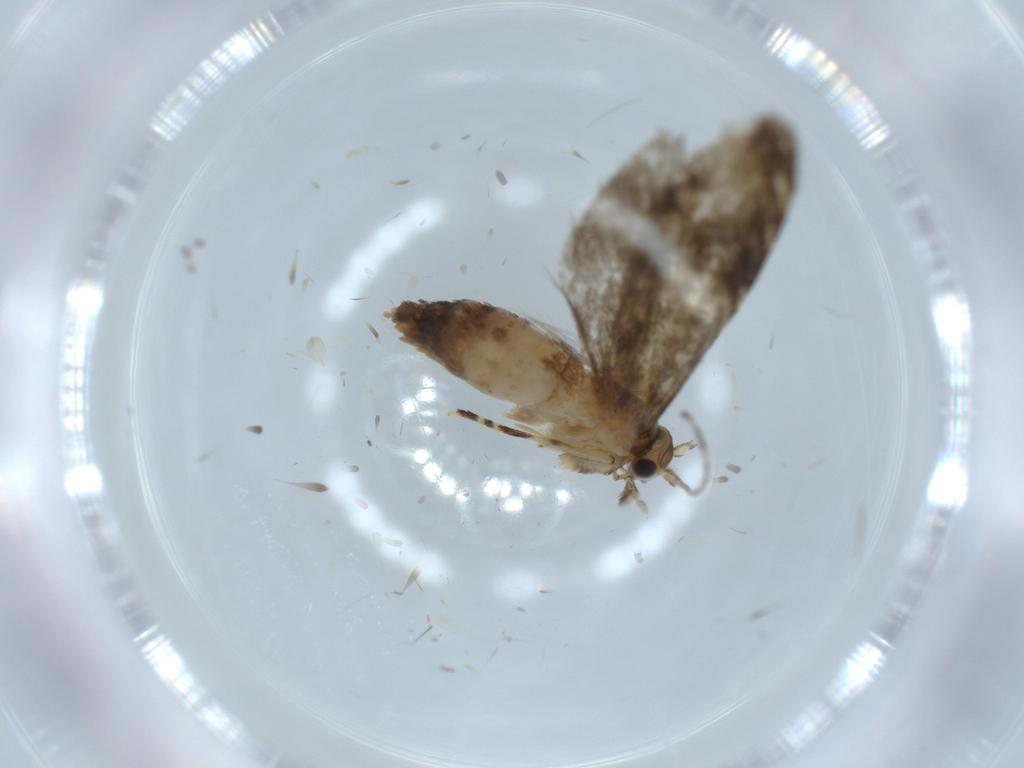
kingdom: Animalia
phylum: Arthropoda
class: Insecta
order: Lepidoptera
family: Tineidae
